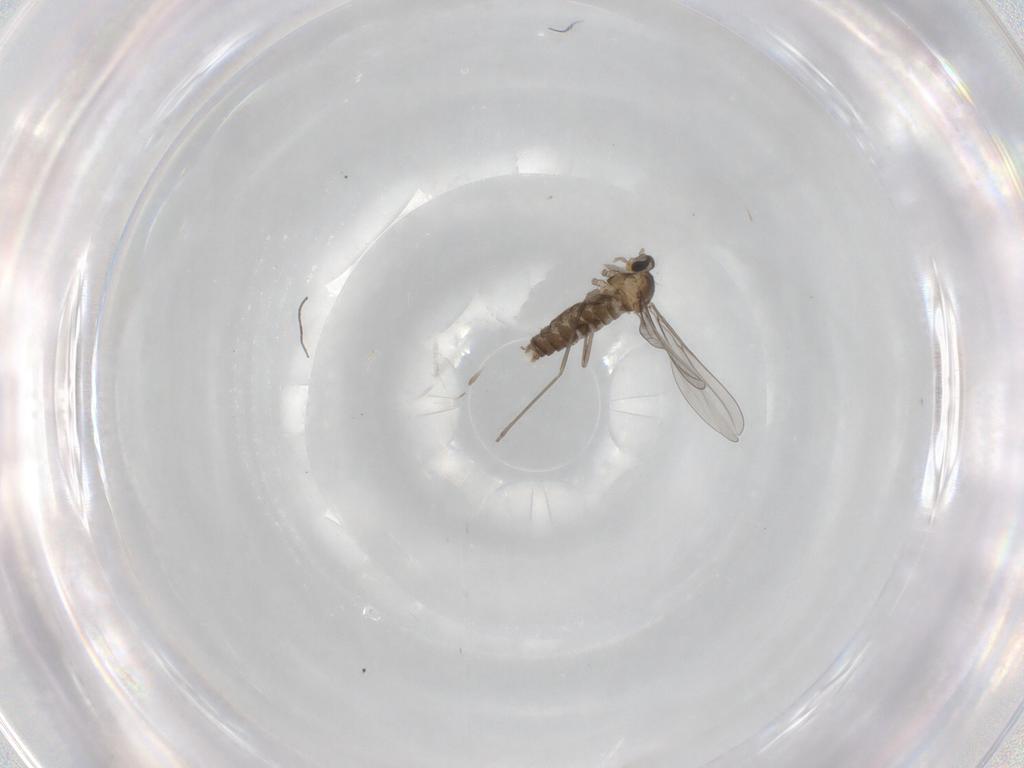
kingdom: Animalia
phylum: Arthropoda
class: Insecta
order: Diptera
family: Cecidomyiidae
